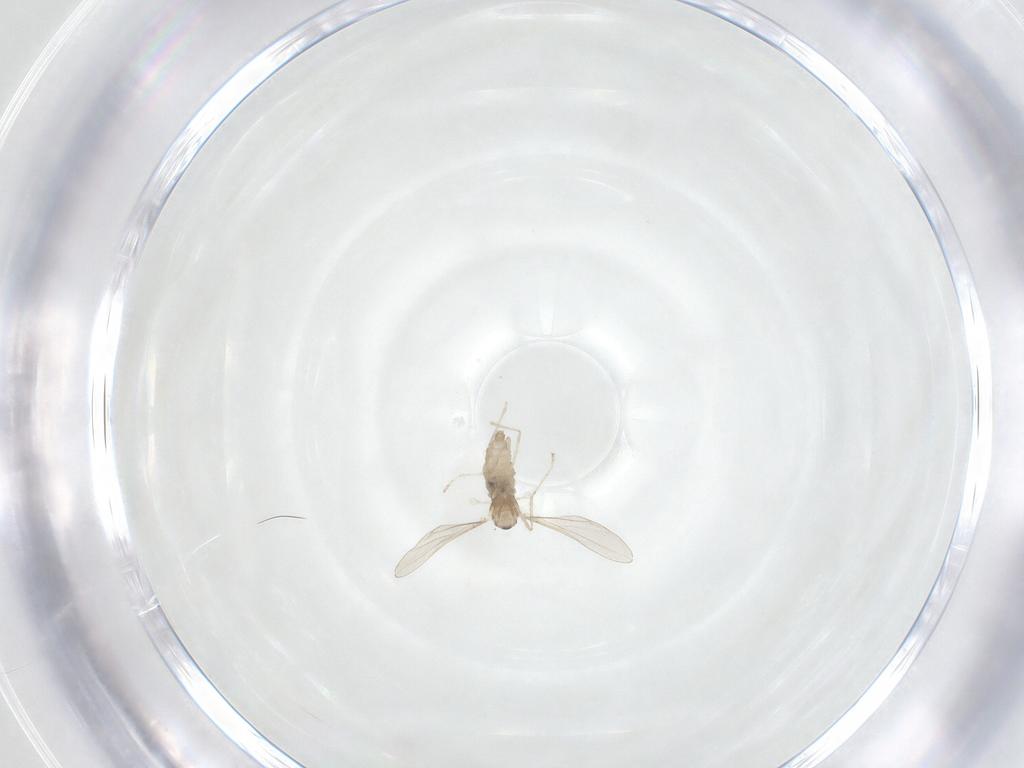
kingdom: Animalia
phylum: Arthropoda
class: Insecta
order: Diptera
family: Cecidomyiidae
